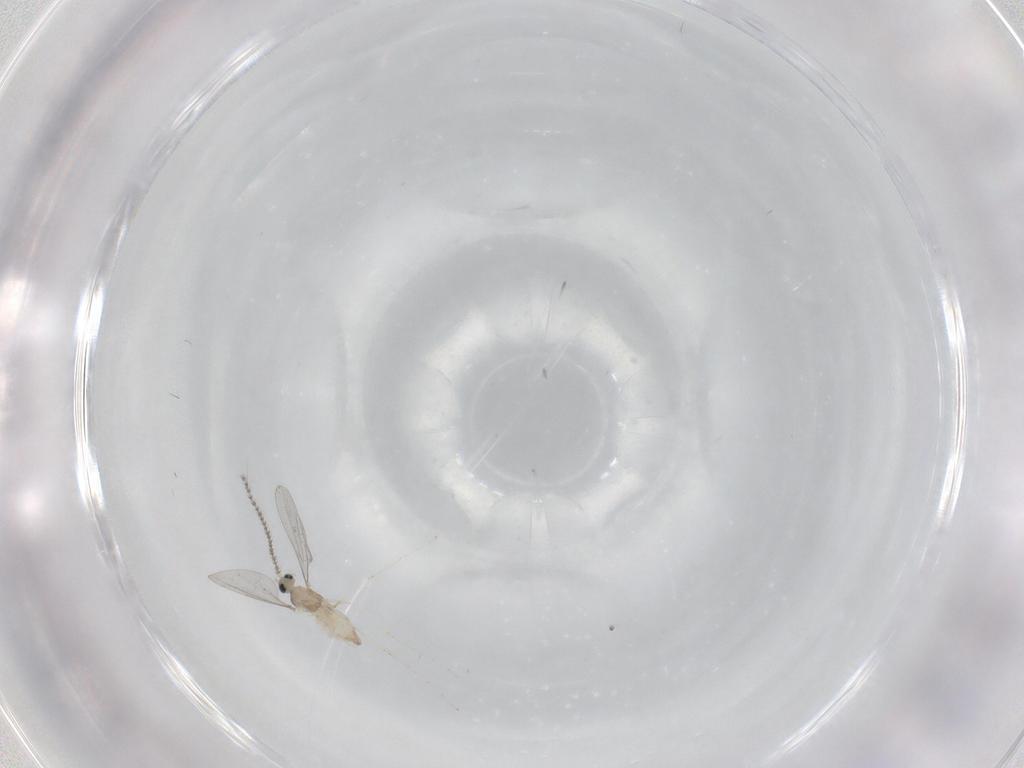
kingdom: Animalia
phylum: Arthropoda
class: Insecta
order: Diptera
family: Cecidomyiidae
